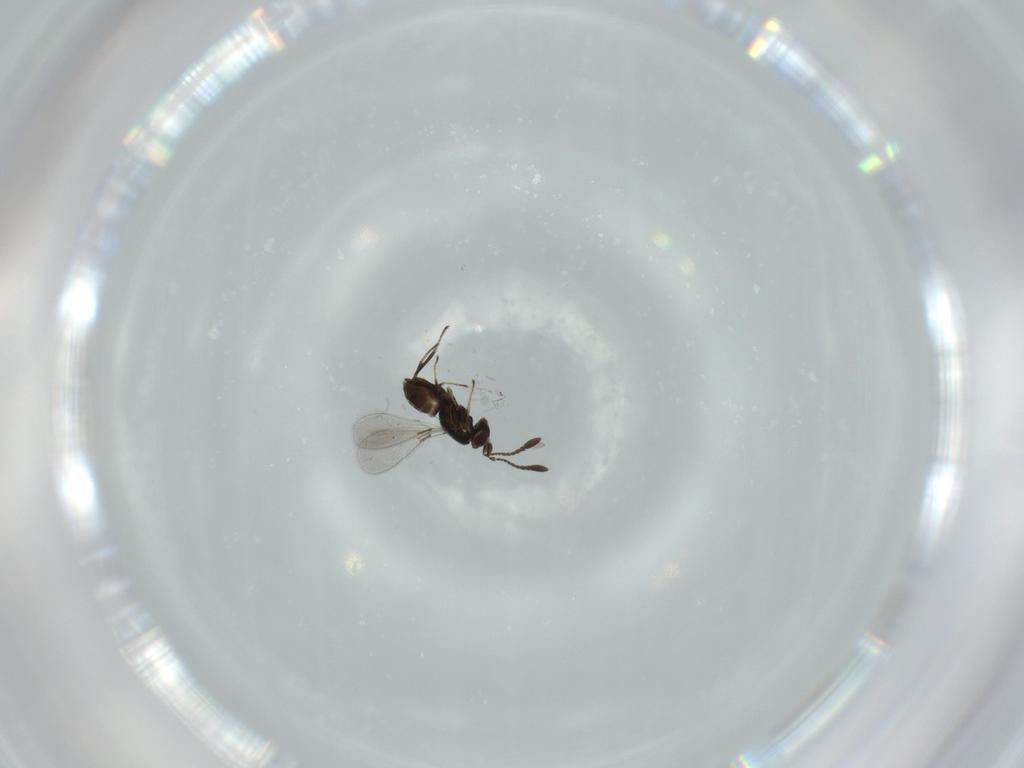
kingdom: Animalia
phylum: Arthropoda
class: Insecta
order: Hymenoptera
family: Mymaridae
